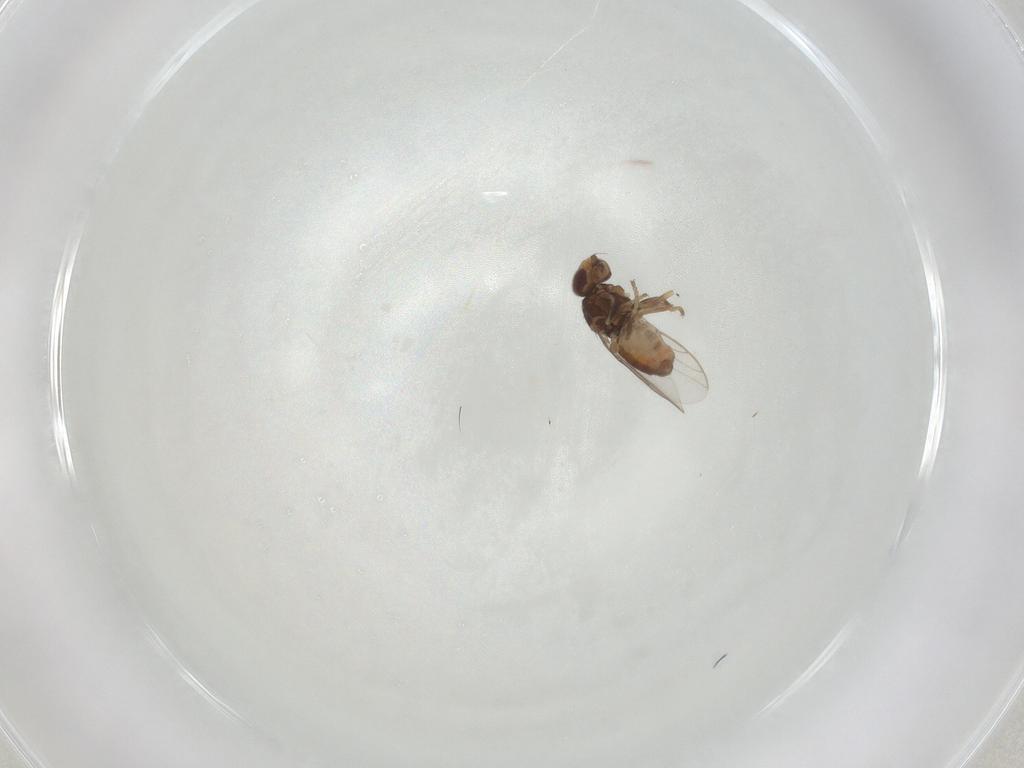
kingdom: Animalia
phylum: Arthropoda
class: Insecta
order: Diptera
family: Chloropidae
